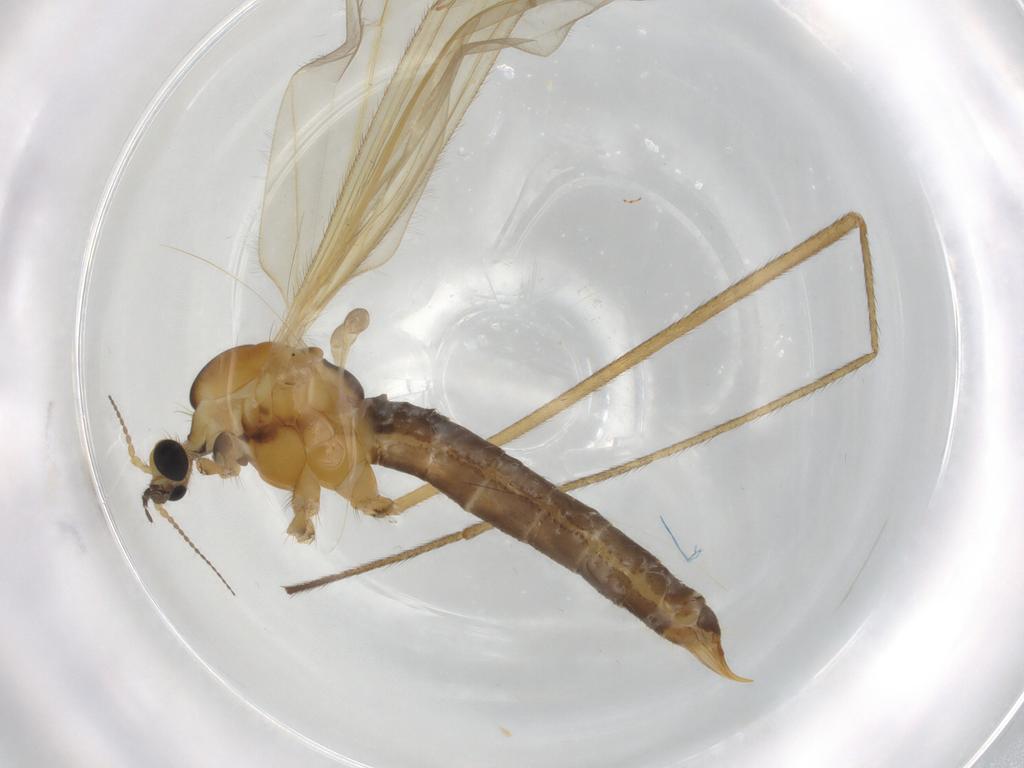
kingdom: Animalia
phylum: Arthropoda
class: Insecta
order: Diptera
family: Limoniidae
